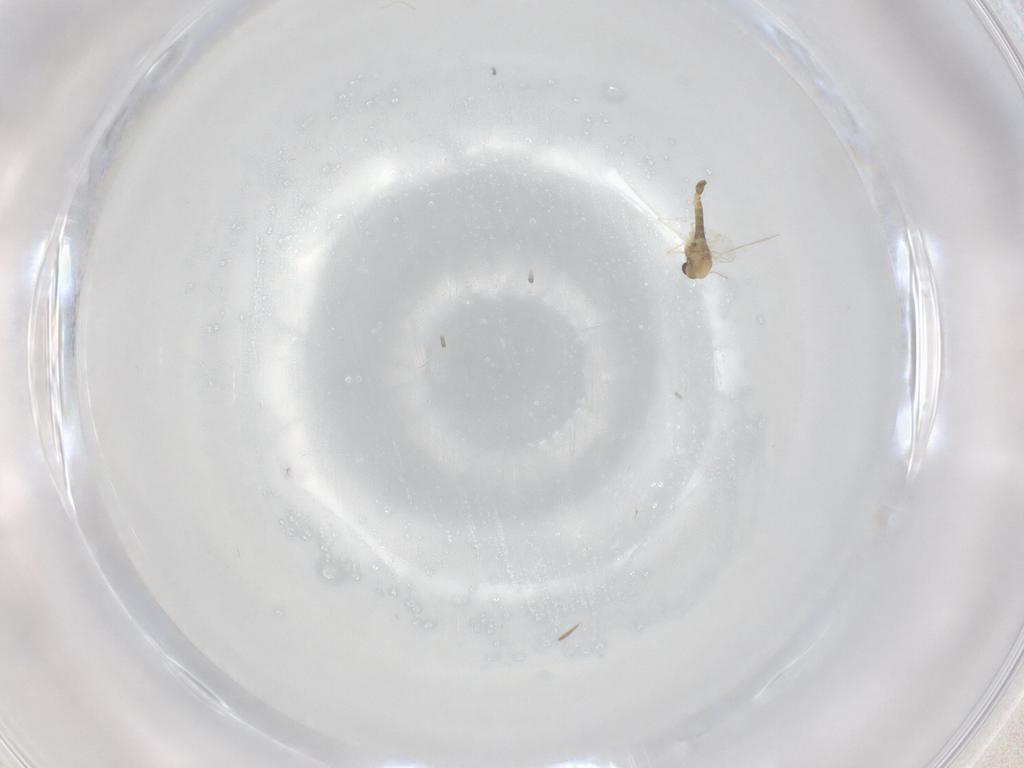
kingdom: Animalia
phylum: Arthropoda
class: Insecta
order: Diptera
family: Chironomidae
